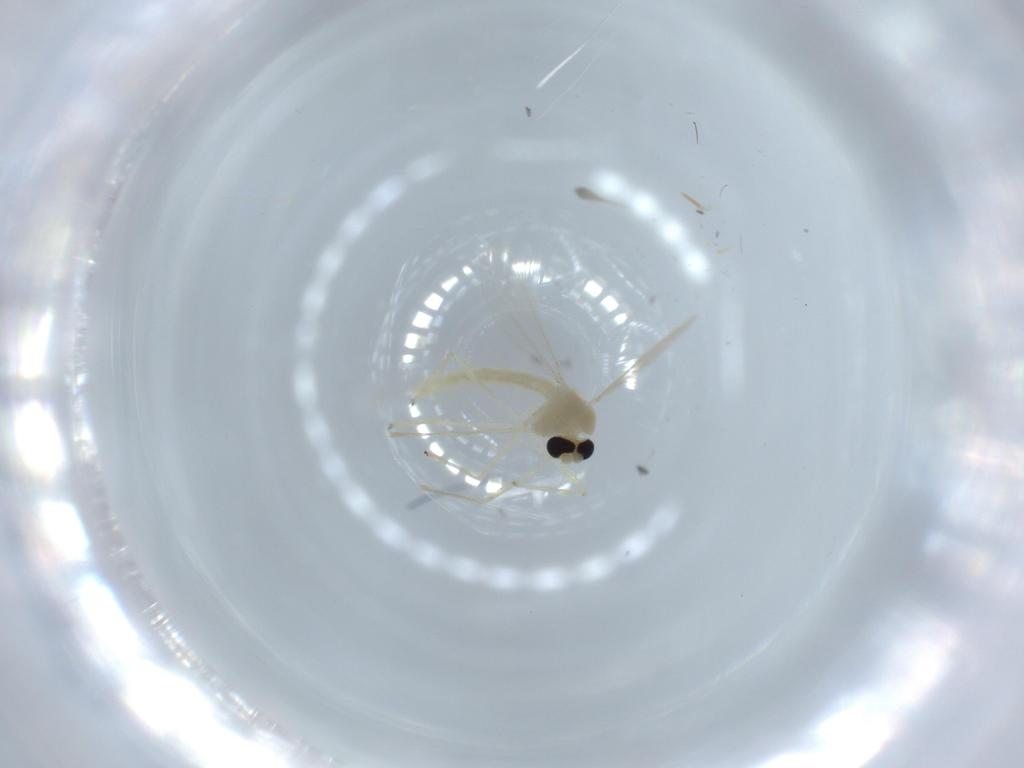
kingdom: Animalia
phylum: Arthropoda
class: Insecta
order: Diptera
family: Chironomidae
